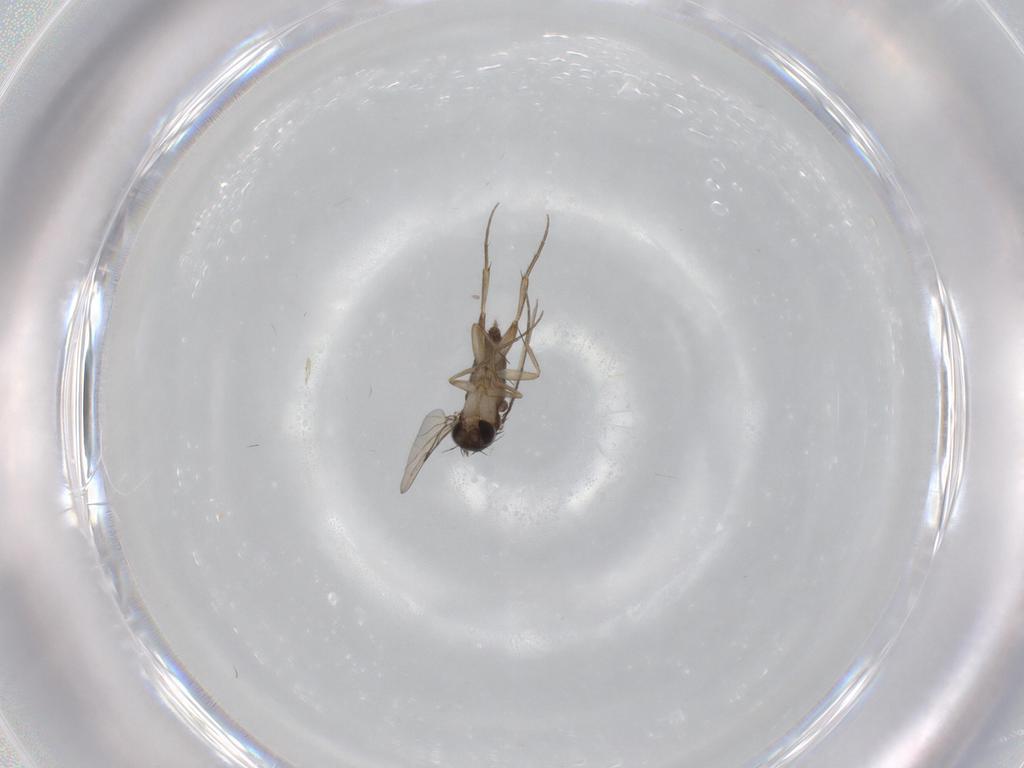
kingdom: Animalia
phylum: Arthropoda
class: Insecta
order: Diptera
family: Phoridae
